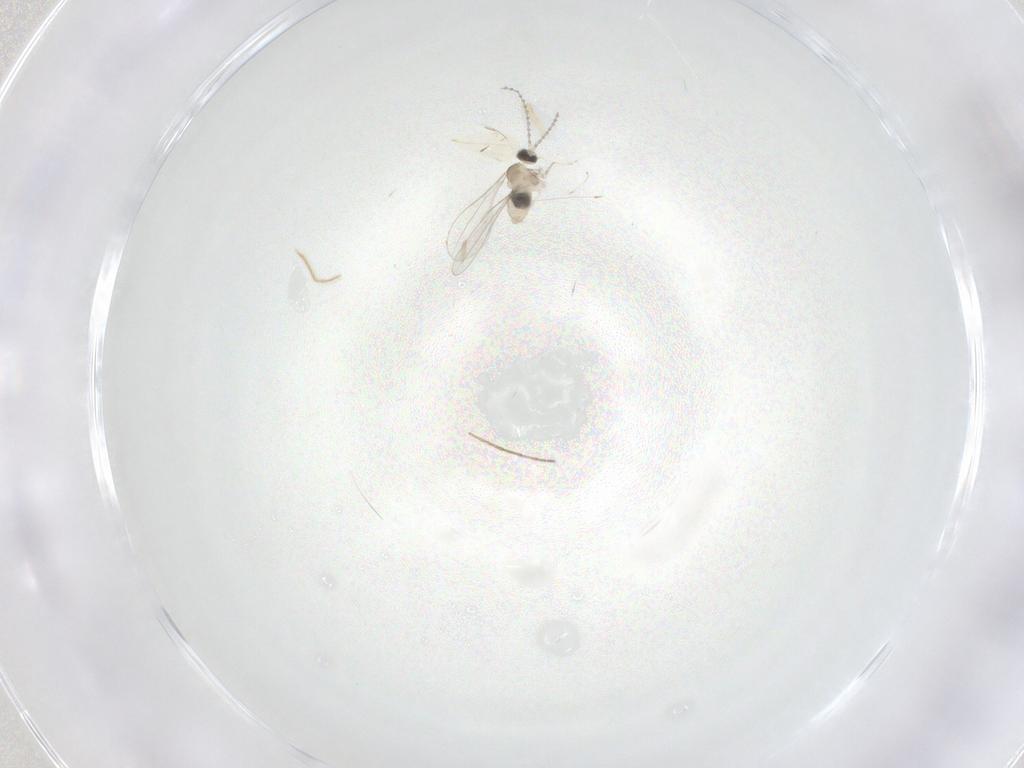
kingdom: Animalia
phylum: Arthropoda
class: Insecta
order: Diptera
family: Cecidomyiidae
